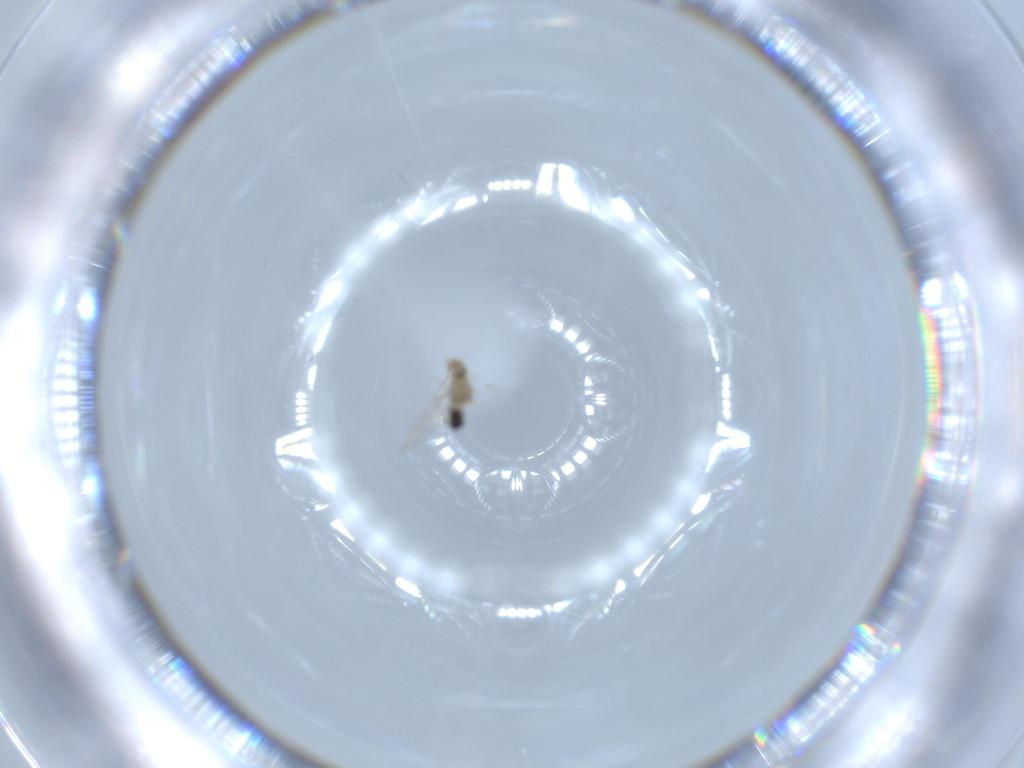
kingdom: Animalia
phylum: Arthropoda
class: Insecta
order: Diptera
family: Cecidomyiidae
